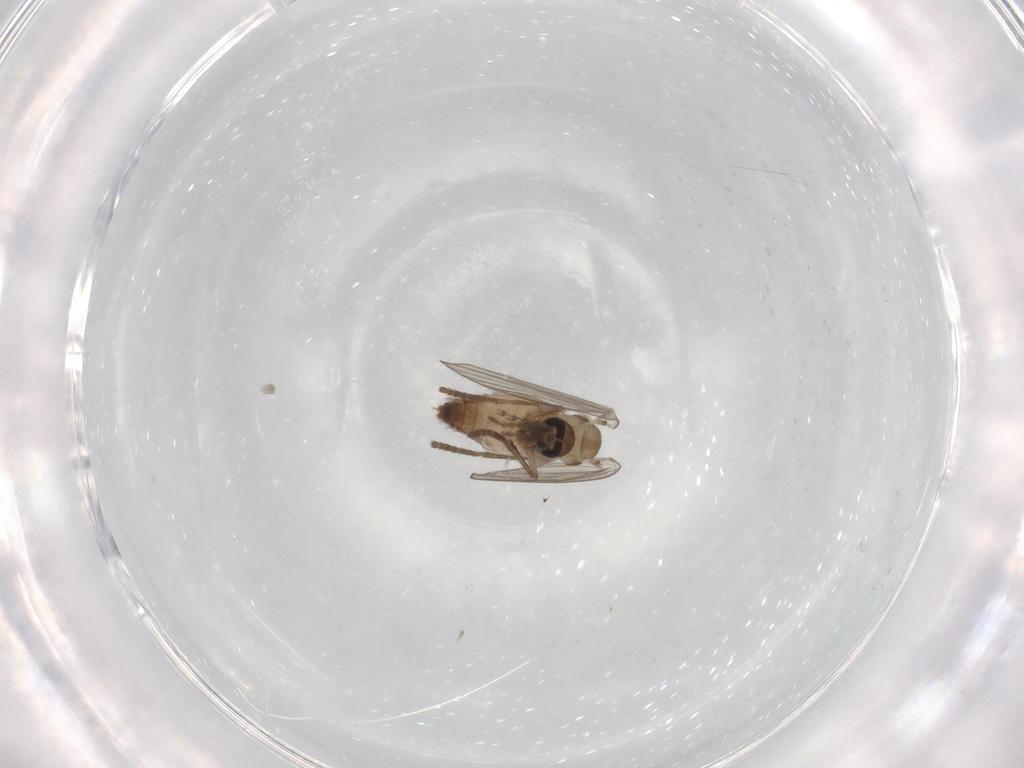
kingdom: Animalia
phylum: Arthropoda
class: Insecta
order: Diptera
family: Psychodidae
